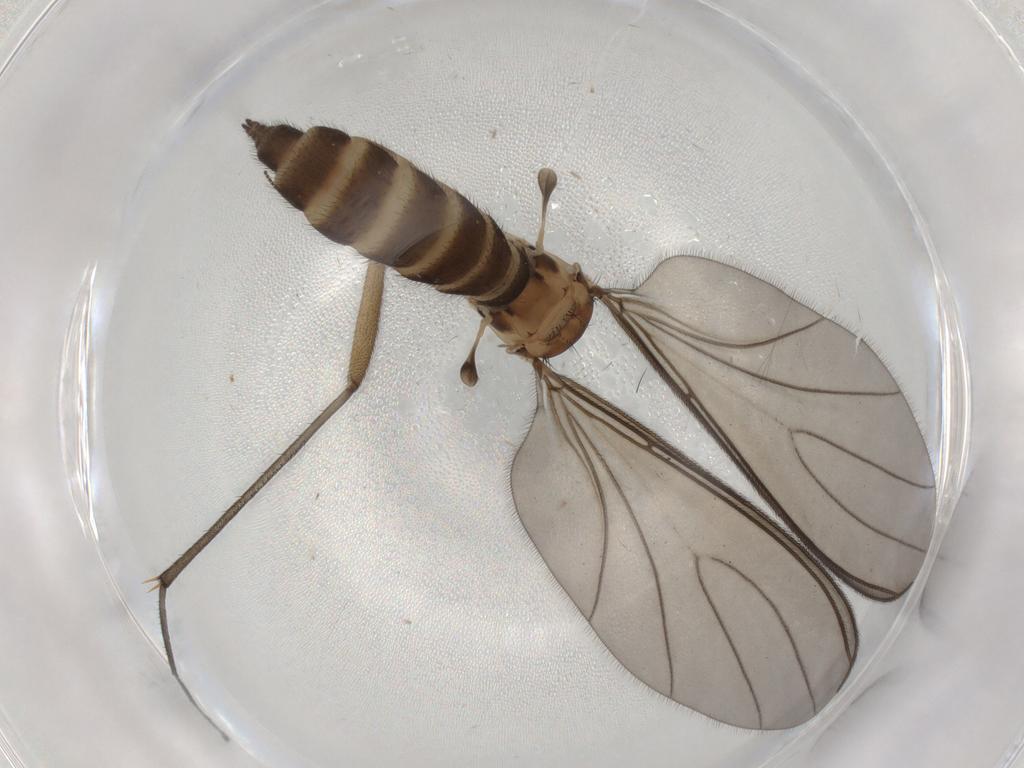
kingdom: Animalia
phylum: Arthropoda
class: Insecta
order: Diptera
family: Sciaridae
